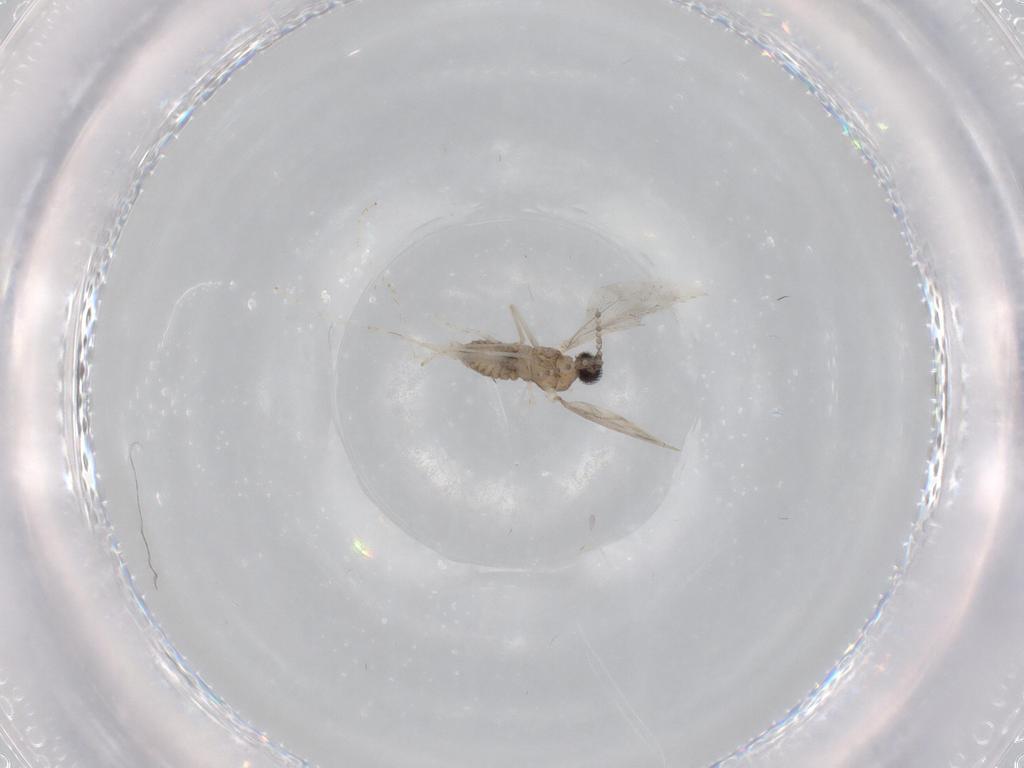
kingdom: Animalia
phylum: Arthropoda
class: Insecta
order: Diptera
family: Cecidomyiidae
